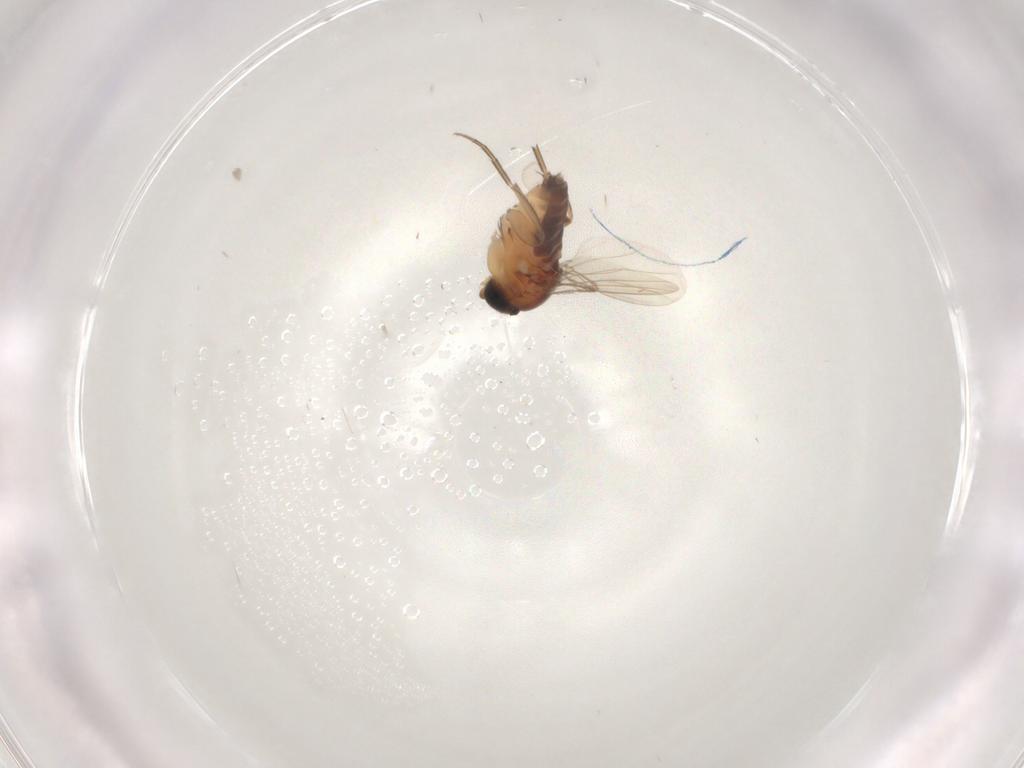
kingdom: Animalia
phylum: Arthropoda
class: Insecta
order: Diptera
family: Phoridae
